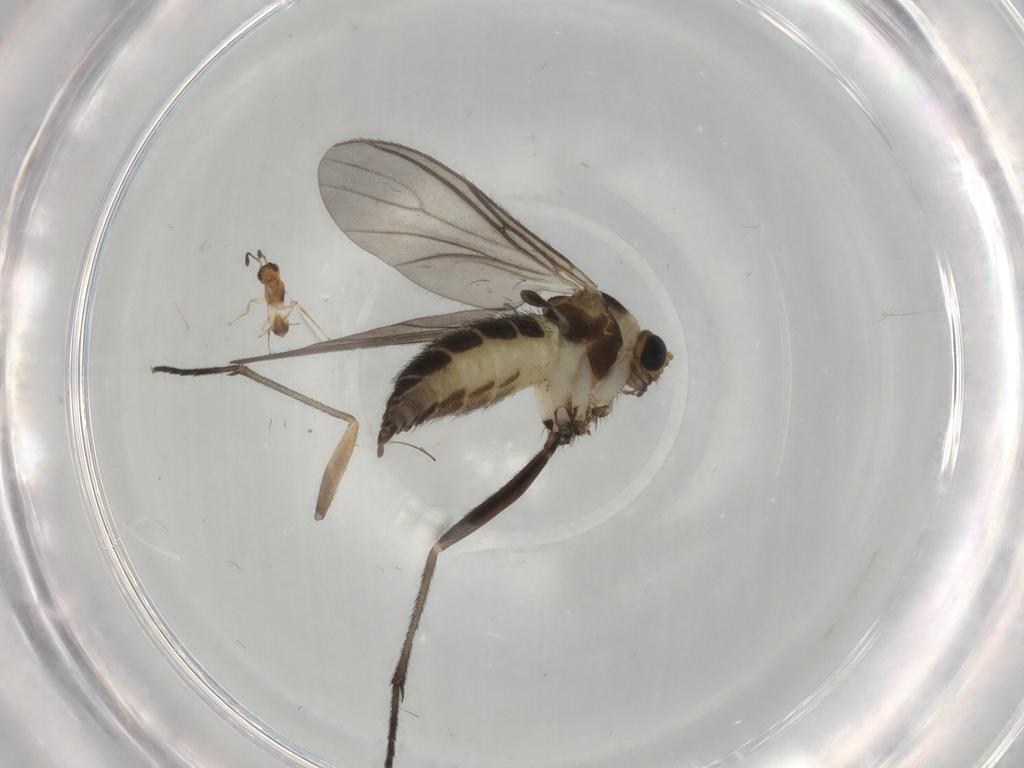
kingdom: Animalia
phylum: Arthropoda
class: Insecta
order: Diptera
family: Sciaridae
